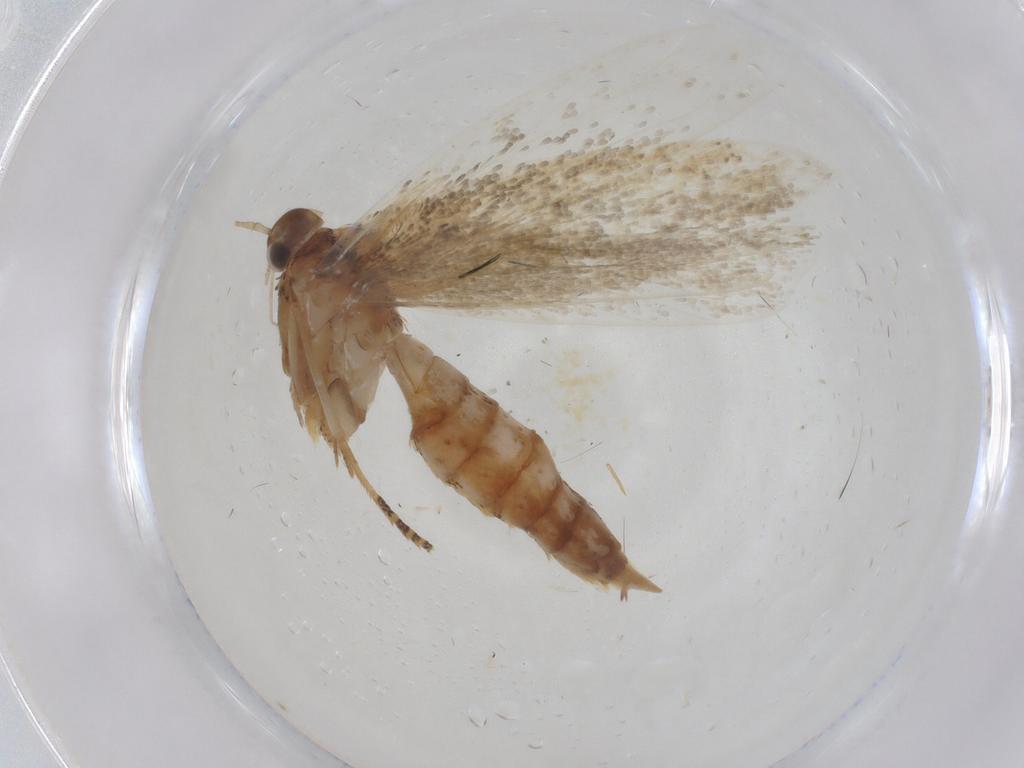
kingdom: Animalia
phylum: Arthropoda
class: Insecta
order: Lepidoptera
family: Crambidae
